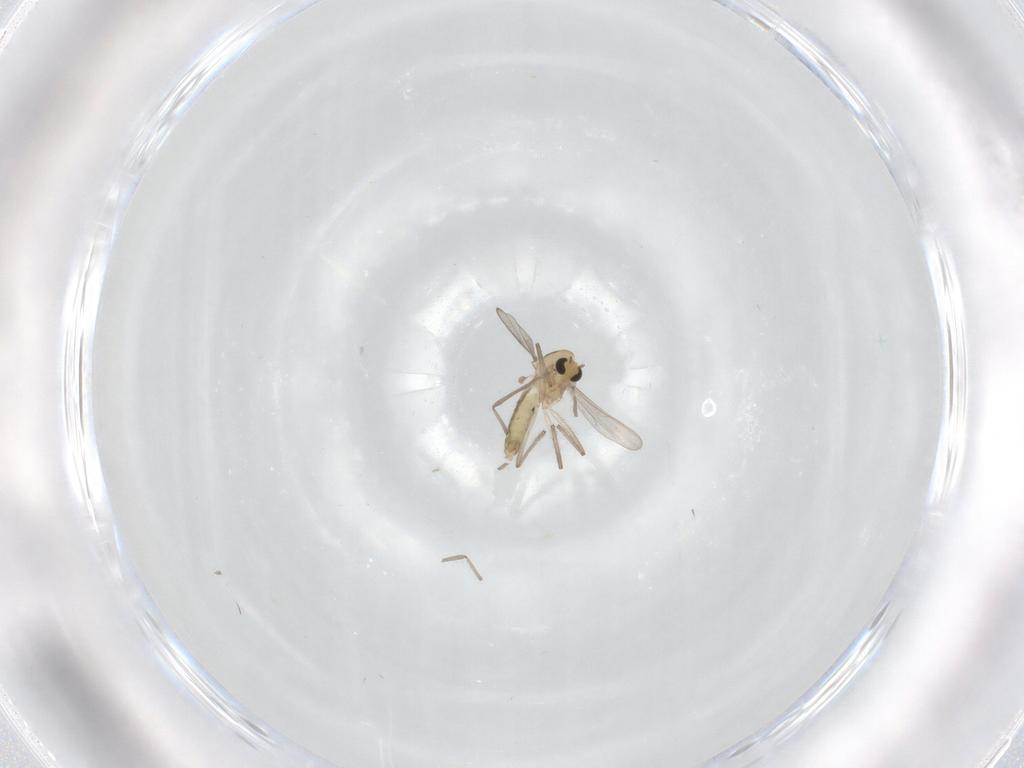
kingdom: Animalia
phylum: Arthropoda
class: Insecta
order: Diptera
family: Chironomidae
